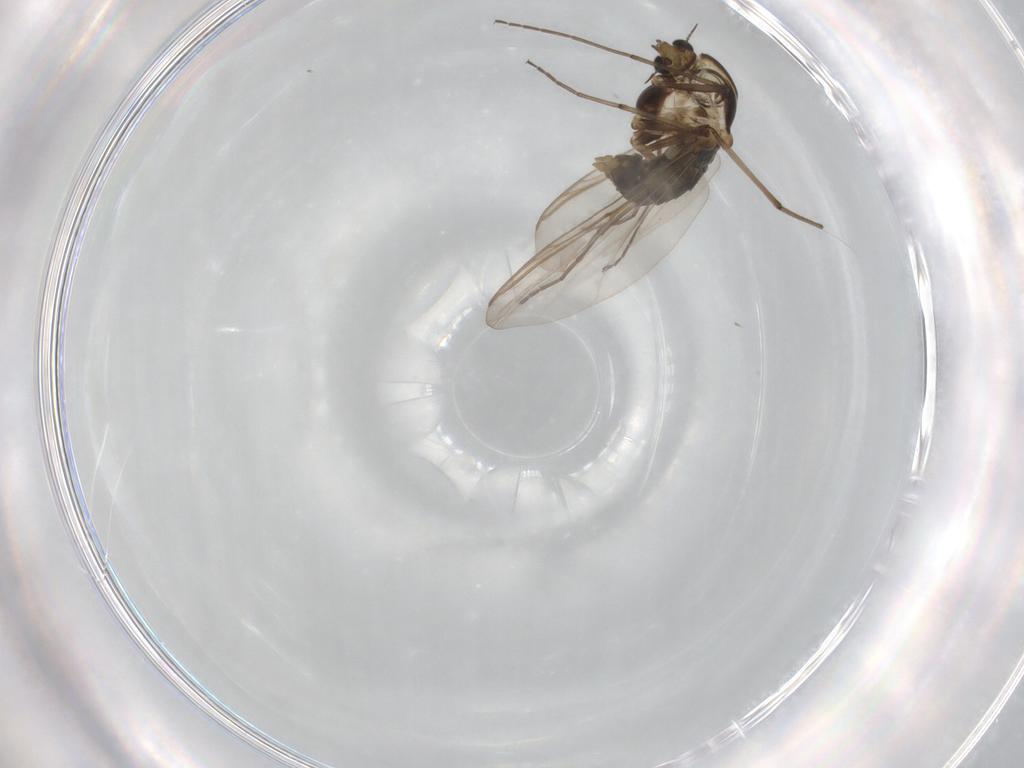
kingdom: Animalia
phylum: Arthropoda
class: Insecta
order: Diptera
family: Chironomidae
